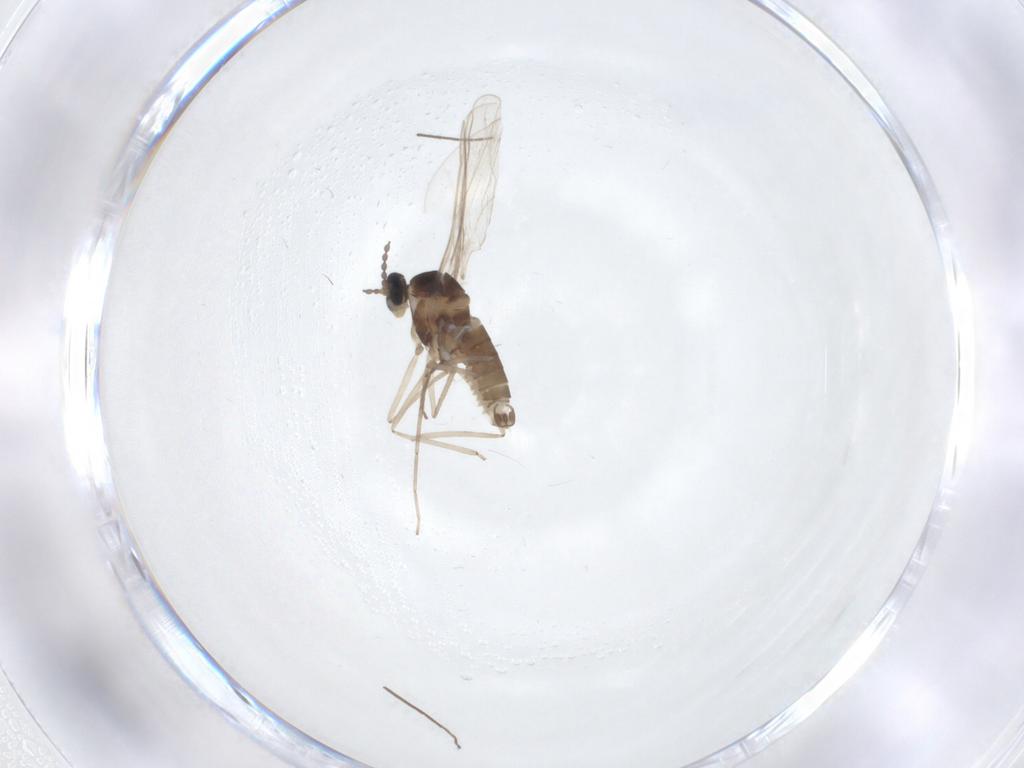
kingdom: Animalia
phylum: Arthropoda
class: Insecta
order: Diptera
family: Cecidomyiidae
